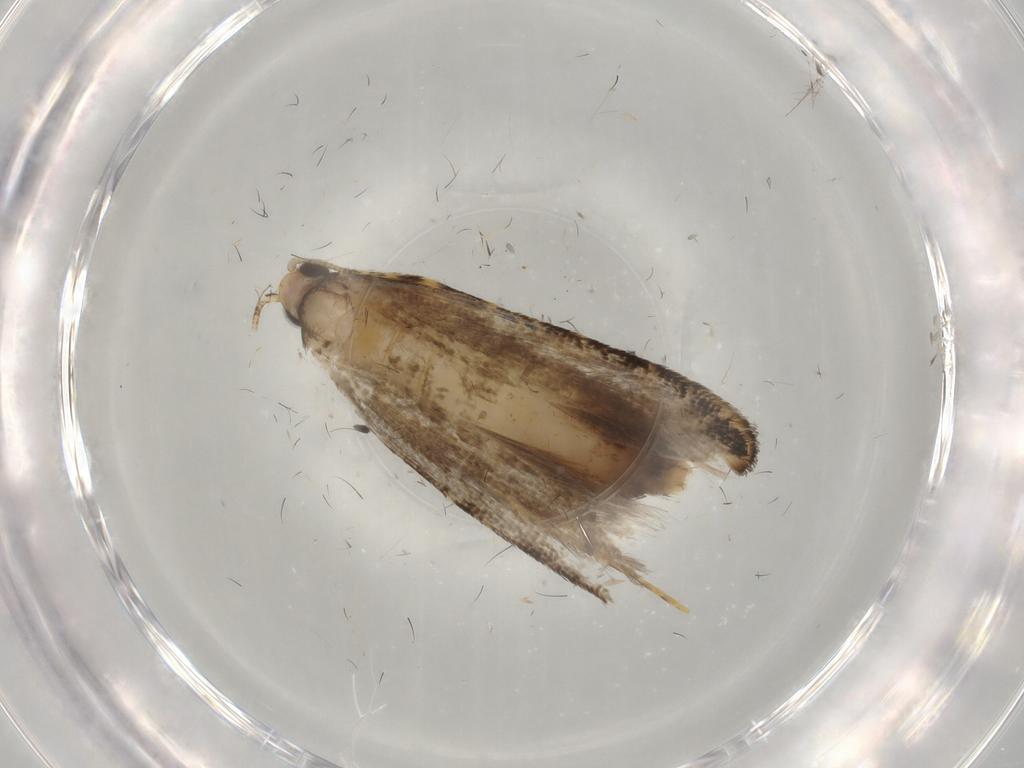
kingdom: Animalia
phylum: Arthropoda
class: Insecta
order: Lepidoptera
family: Tineidae
